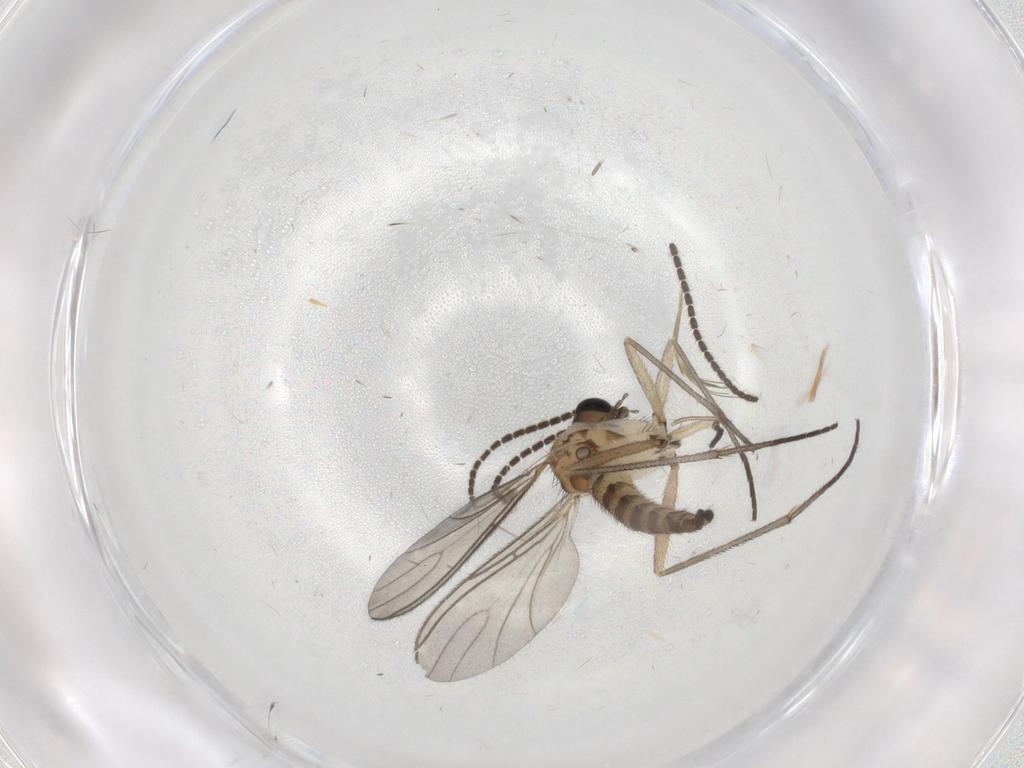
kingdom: Animalia
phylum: Arthropoda
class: Insecta
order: Diptera
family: Sciaridae
